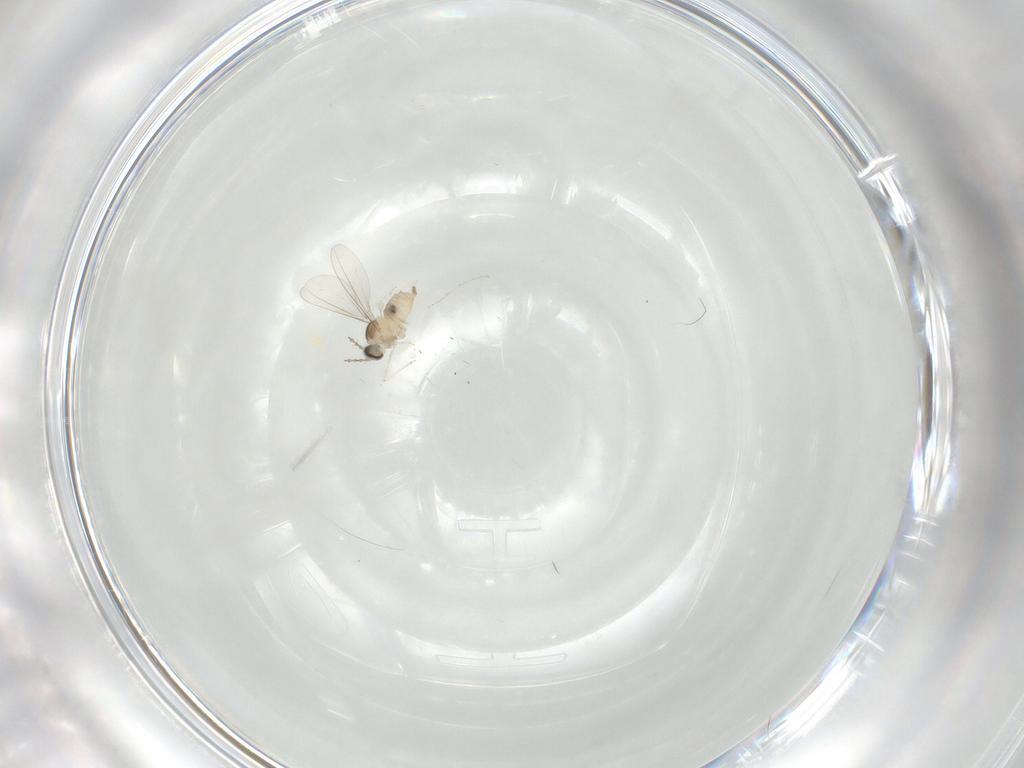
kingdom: Animalia
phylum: Arthropoda
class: Insecta
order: Diptera
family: Cecidomyiidae
